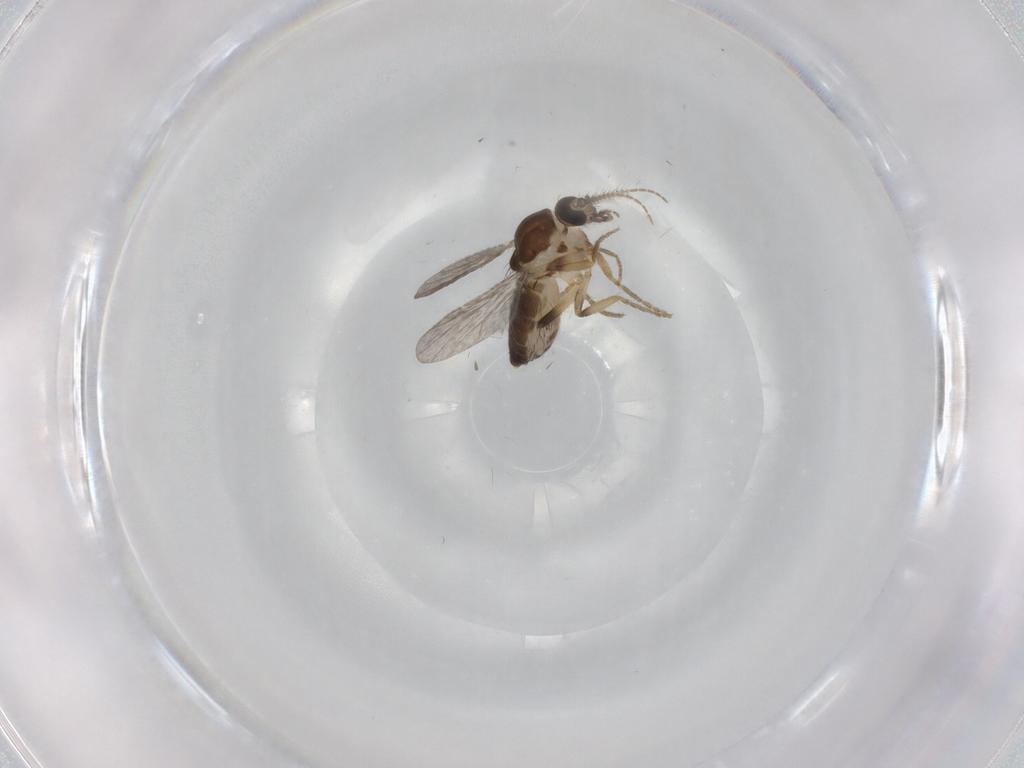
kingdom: Animalia
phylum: Arthropoda
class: Insecta
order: Diptera
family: Ceratopogonidae
